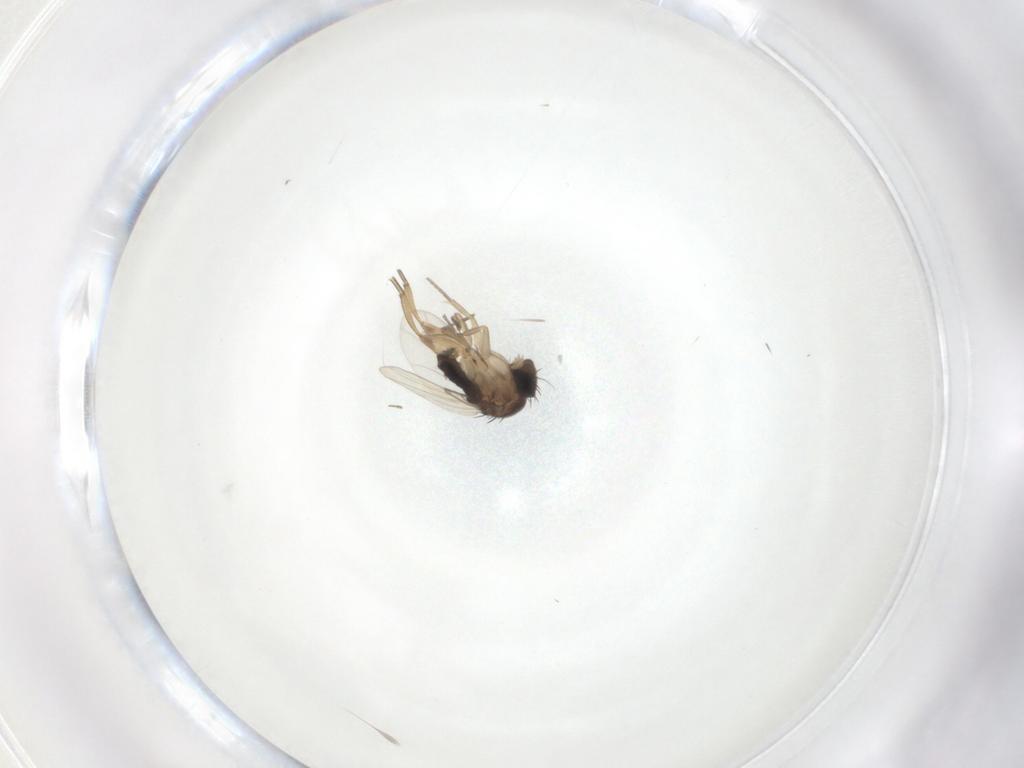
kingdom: Animalia
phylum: Arthropoda
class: Insecta
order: Diptera
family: Phoridae
